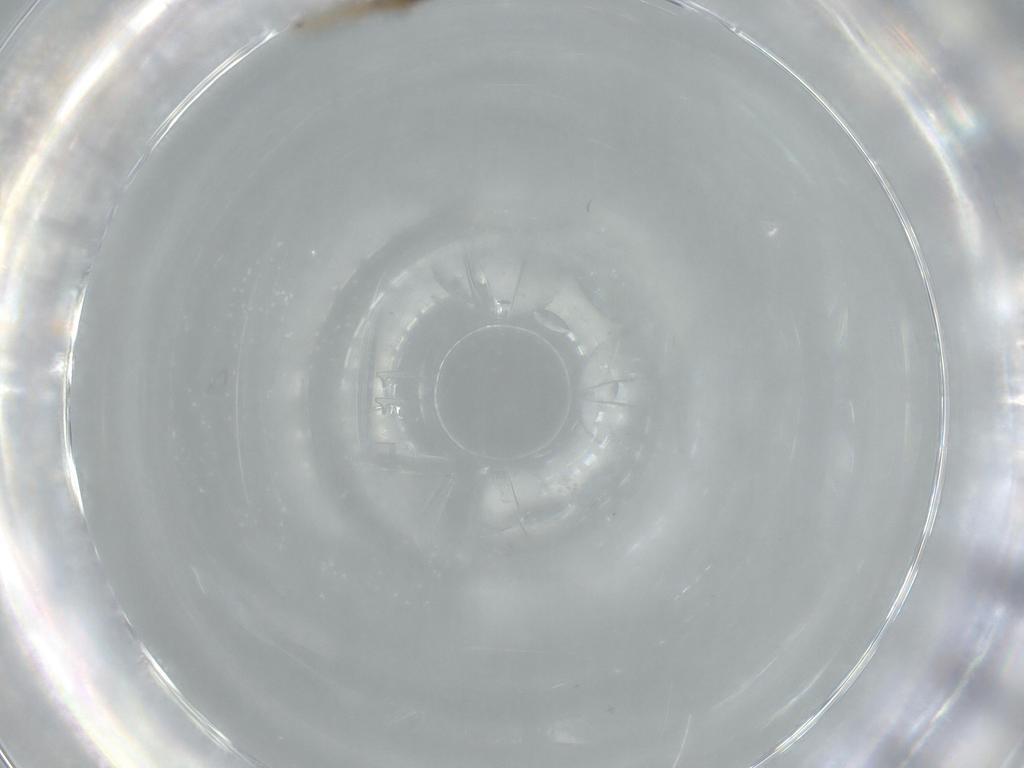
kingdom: Animalia
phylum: Arthropoda
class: Insecta
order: Diptera
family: Cecidomyiidae
